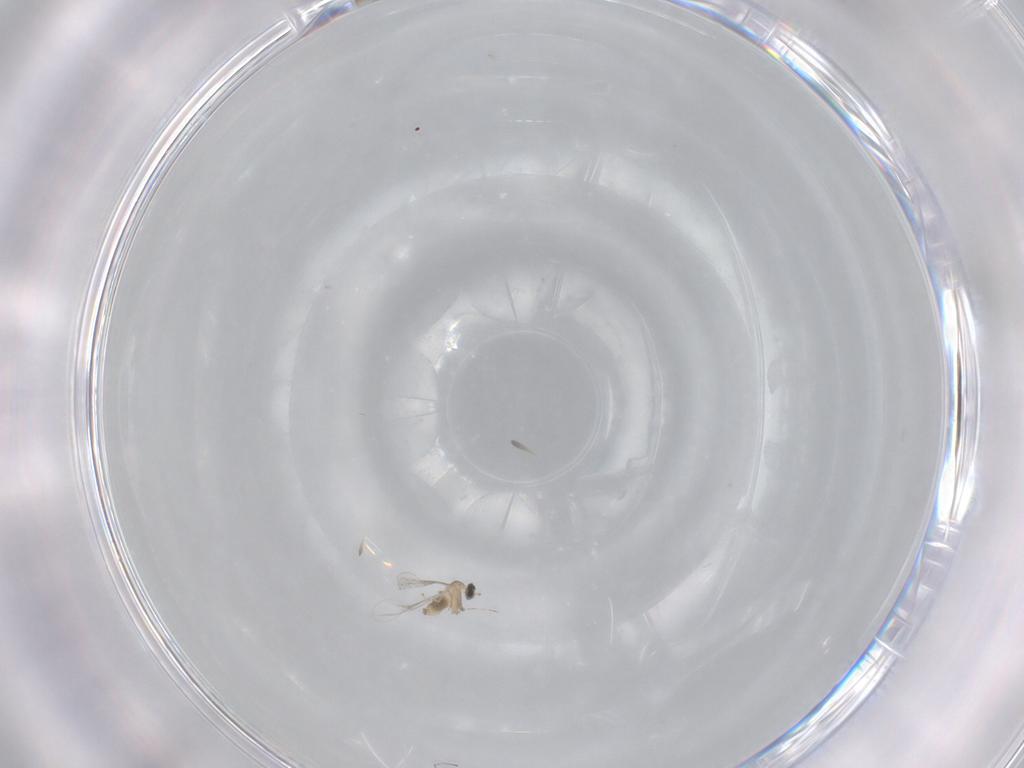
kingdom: Animalia
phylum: Arthropoda
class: Insecta
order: Diptera
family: Cecidomyiidae
